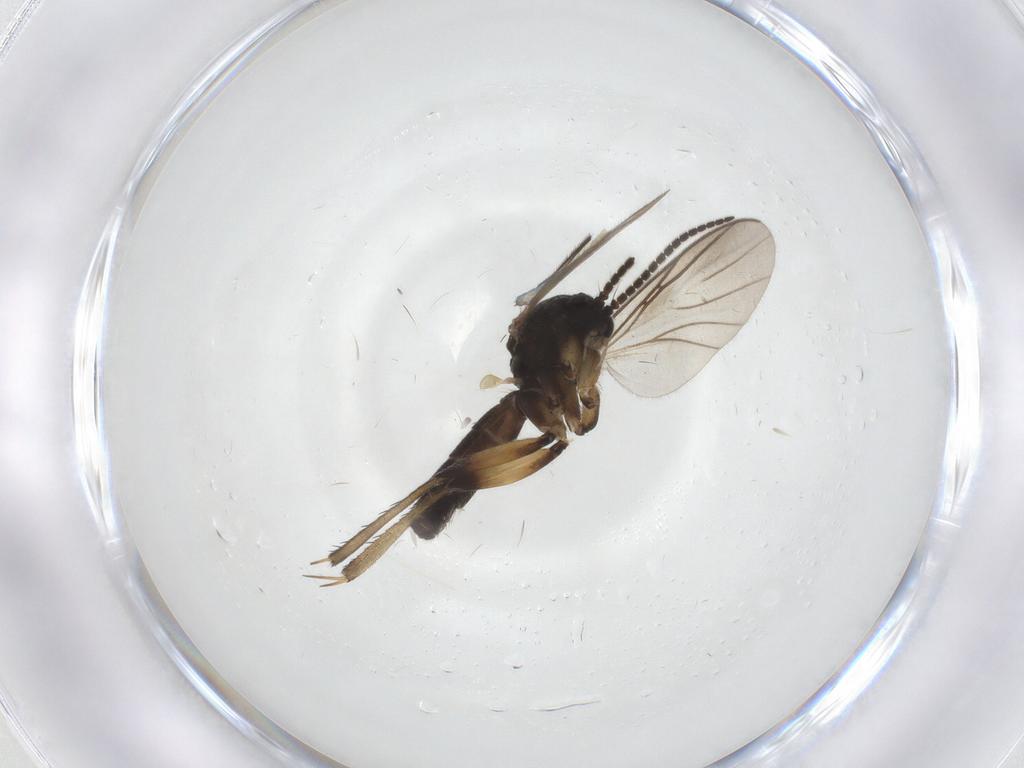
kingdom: Animalia
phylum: Arthropoda
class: Insecta
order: Diptera
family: Mycetophilidae
